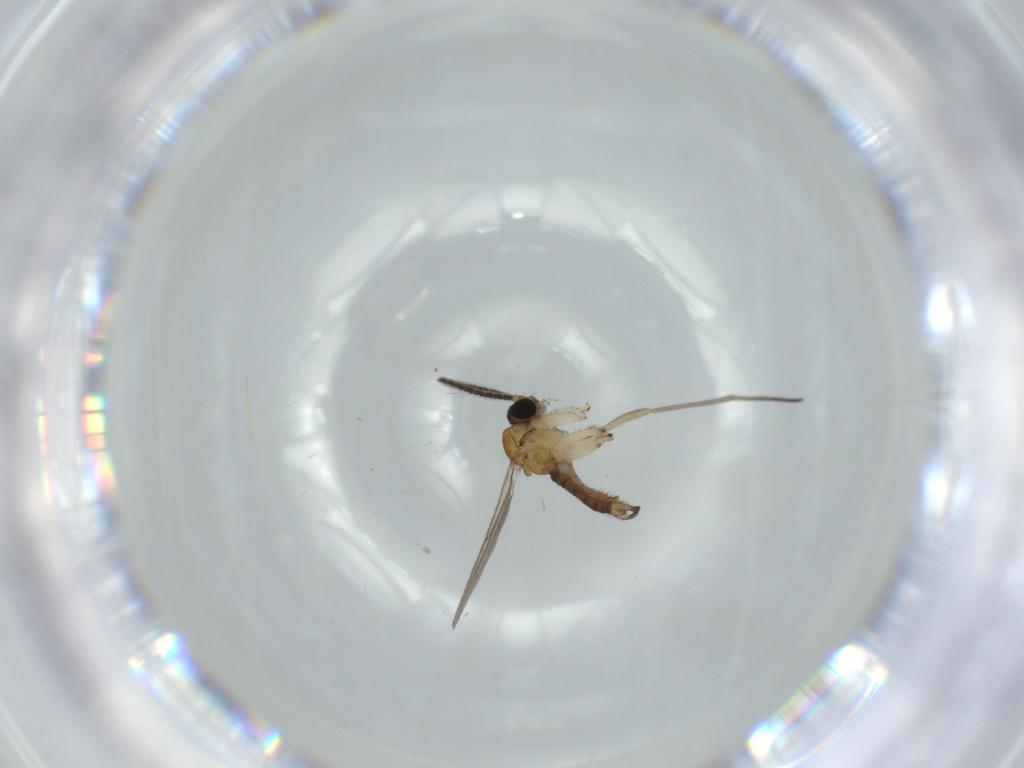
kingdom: Animalia
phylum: Arthropoda
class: Insecta
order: Diptera
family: Sciaridae
